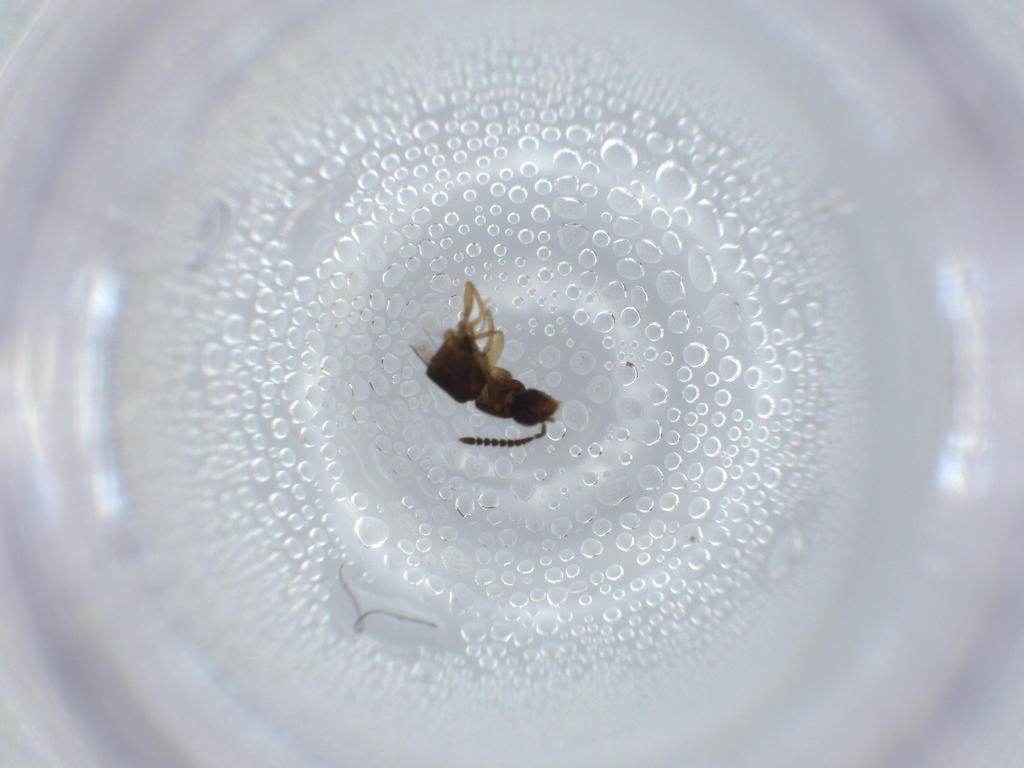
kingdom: Animalia
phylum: Arthropoda
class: Insecta
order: Coleoptera
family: Staphylinidae
